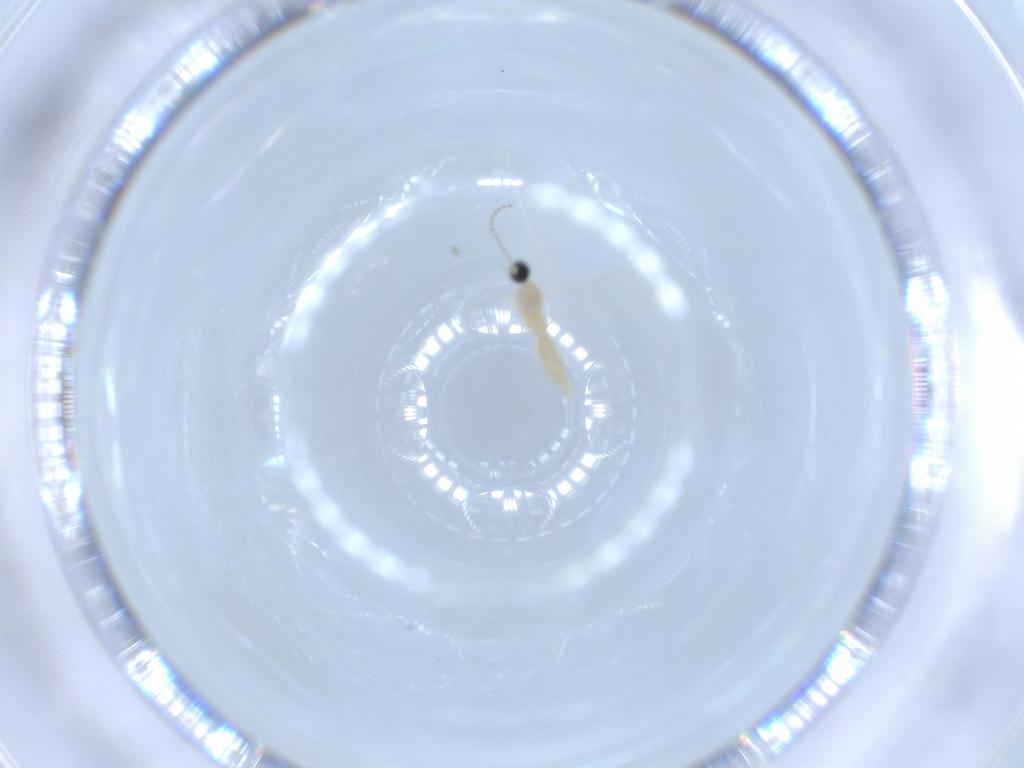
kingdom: Animalia
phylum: Arthropoda
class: Insecta
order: Diptera
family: Cecidomyiidae
